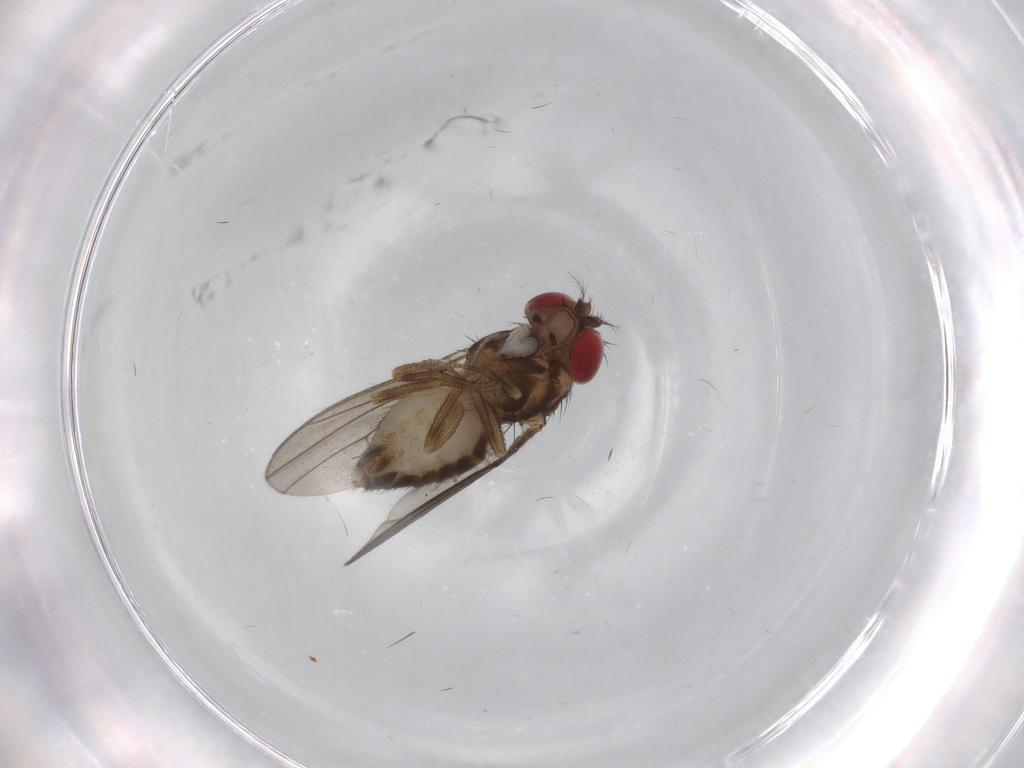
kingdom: Animalia
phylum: Arthropoda
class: Insecta
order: Diptera
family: Drosophilidae
